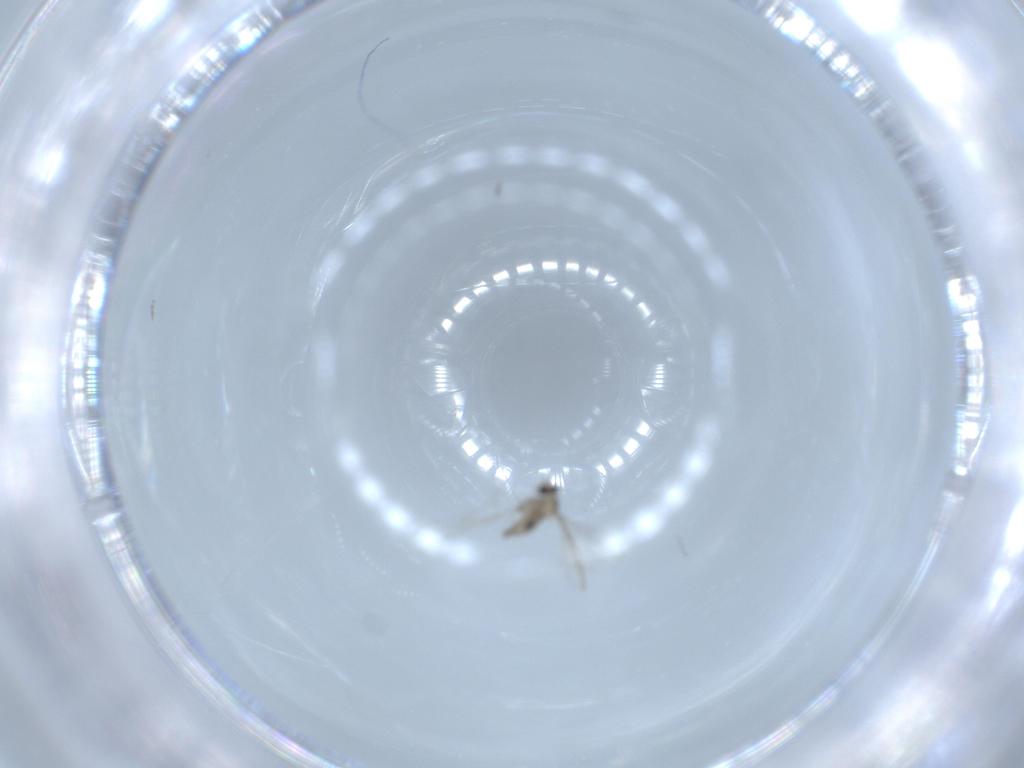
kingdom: Animalia
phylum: Arthropoda
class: Insecta
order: Diptera
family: Cecidomyiidae
